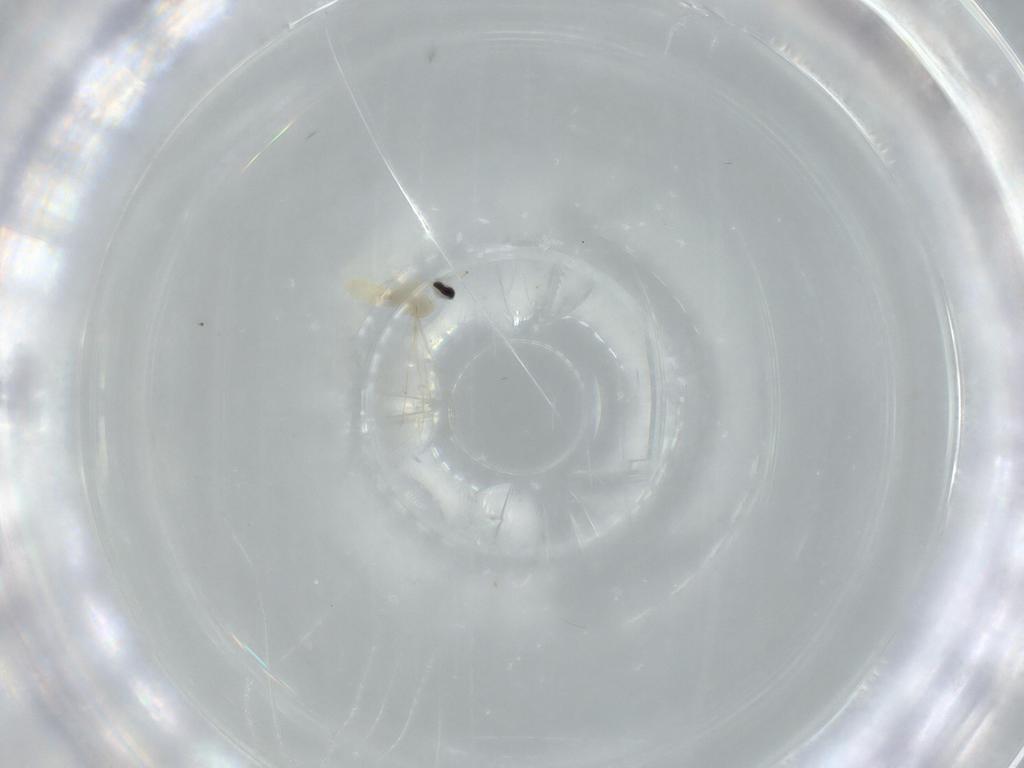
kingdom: Animalia
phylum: Arthropoda
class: Insecta
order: Diptera
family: Cecidomyiidae
